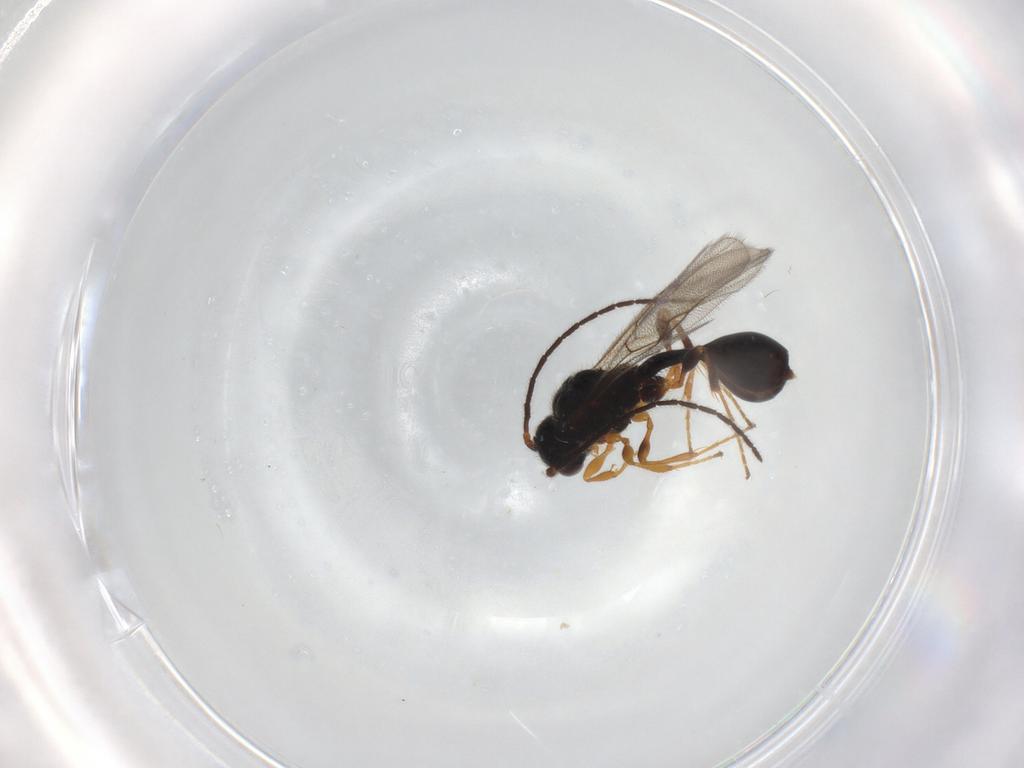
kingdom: Animalia
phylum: Arthropoda
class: Insecta
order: Hymenoptera
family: Diapriidae
